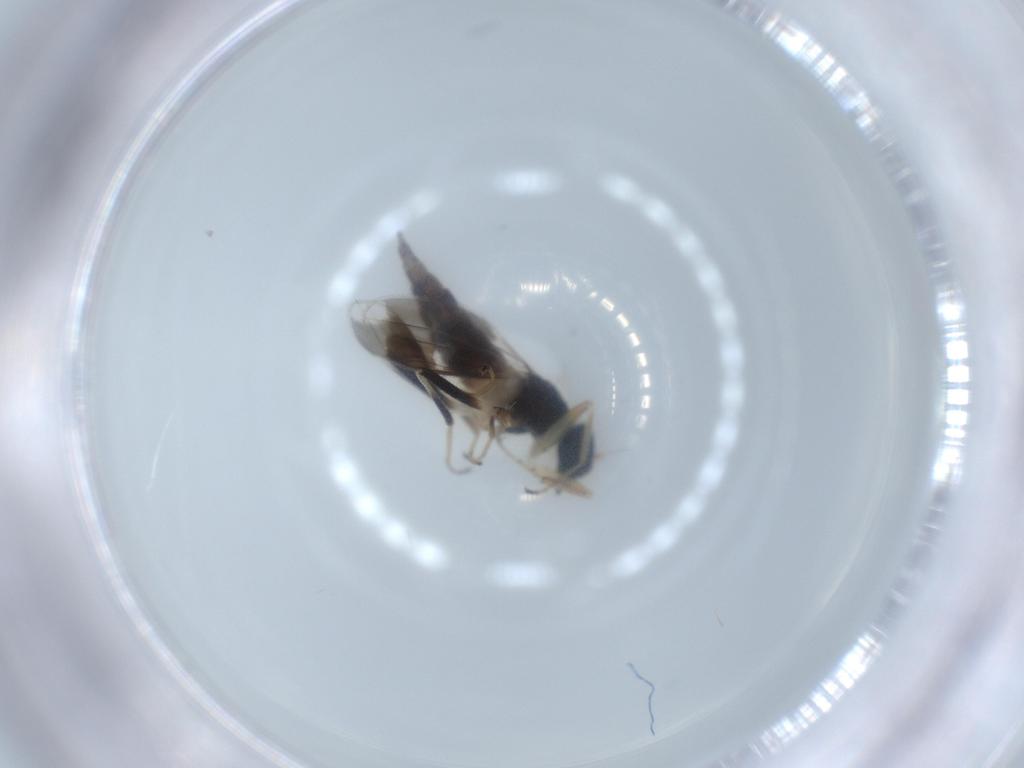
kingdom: Animalia
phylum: Arthropoda
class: Insecta
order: Diptera
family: Hybotidae
